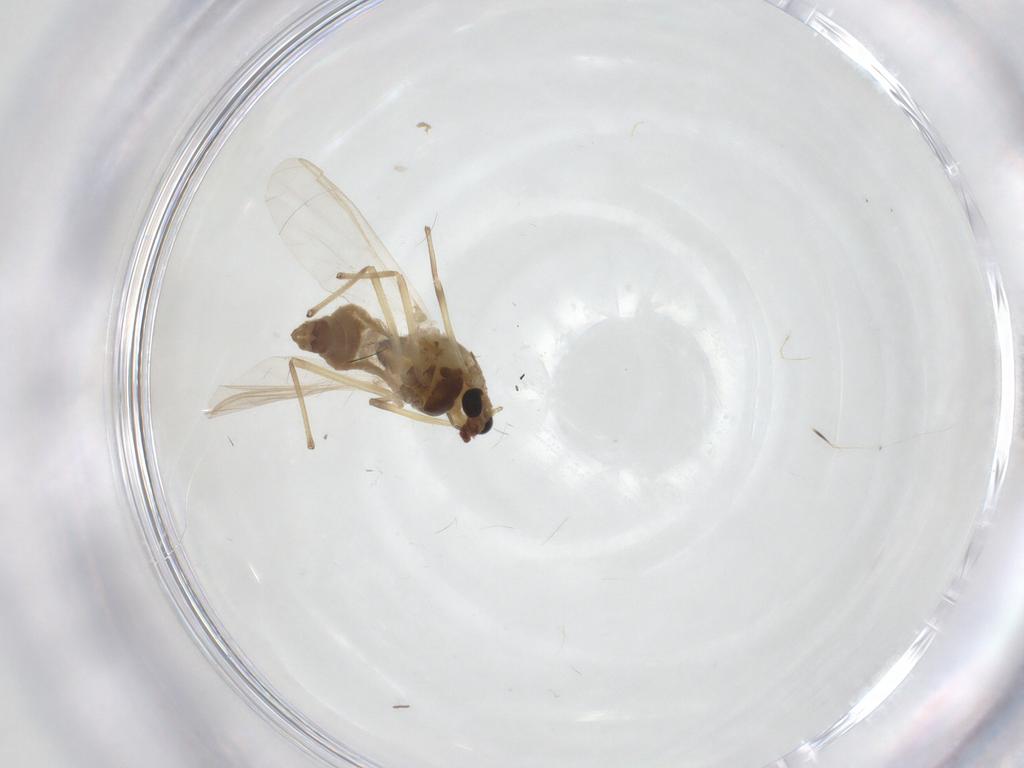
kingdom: Animalia
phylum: Arthropoda
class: Insecta
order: Diptera
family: Chironomidae
